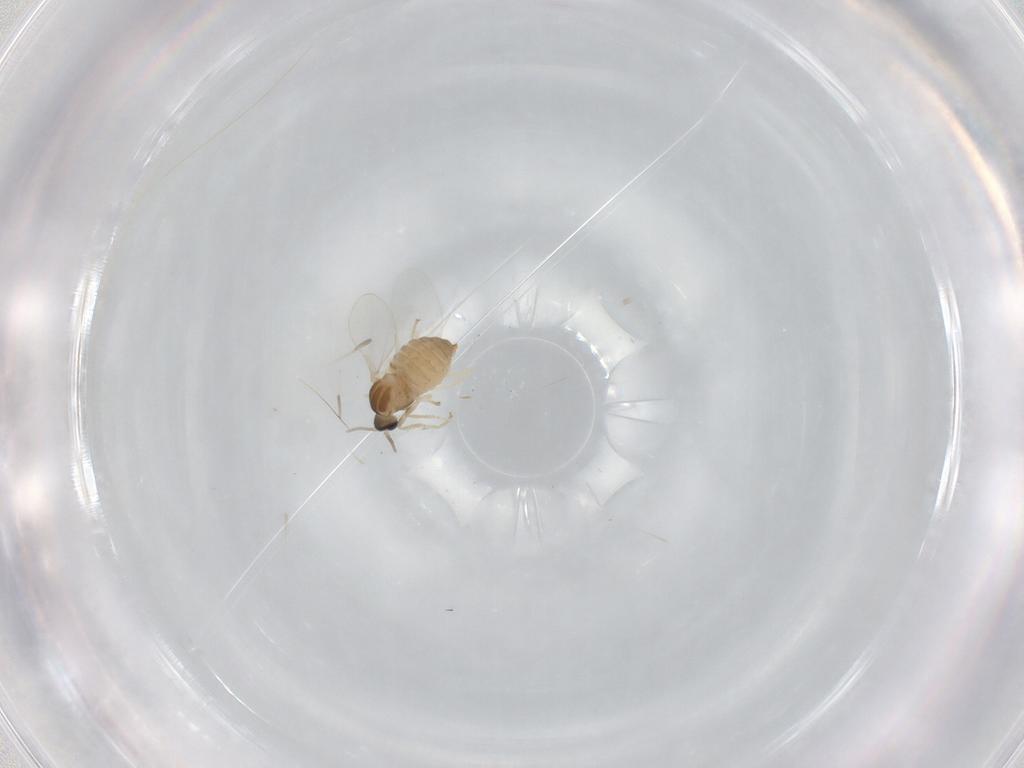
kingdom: Animalia
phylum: Arthropoda
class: Insecta
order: Diptera
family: Cecidomyiidae
